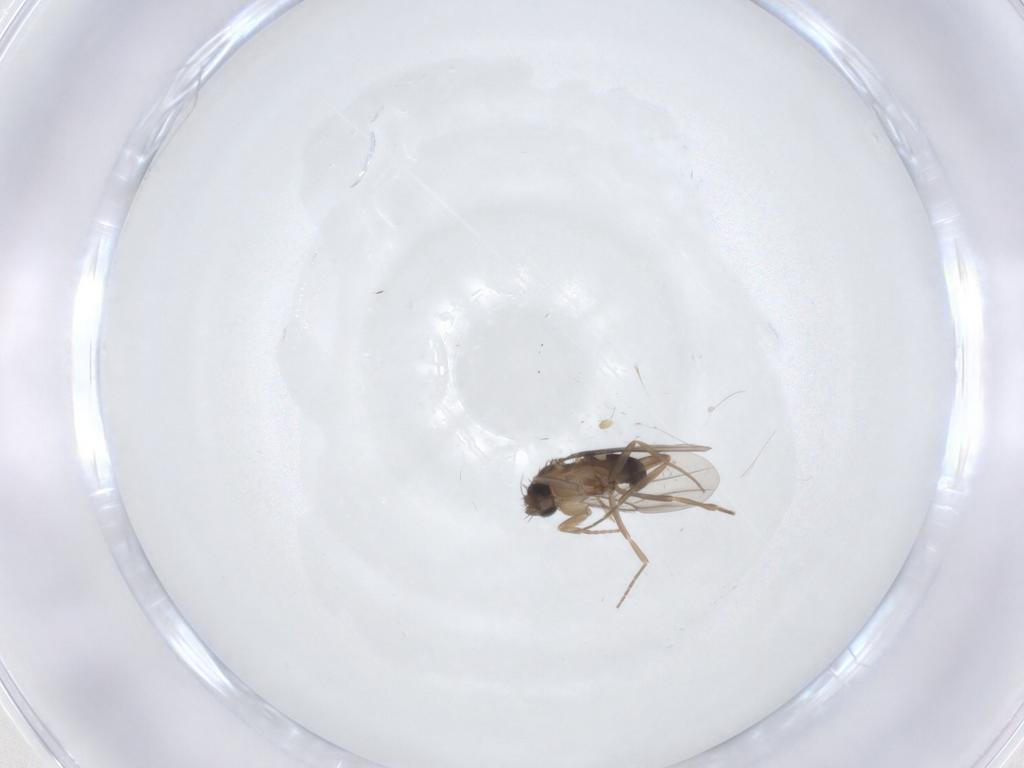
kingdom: Animalia
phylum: Arthropoda
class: Insecta
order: Diptera
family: Cecidomyiidae
